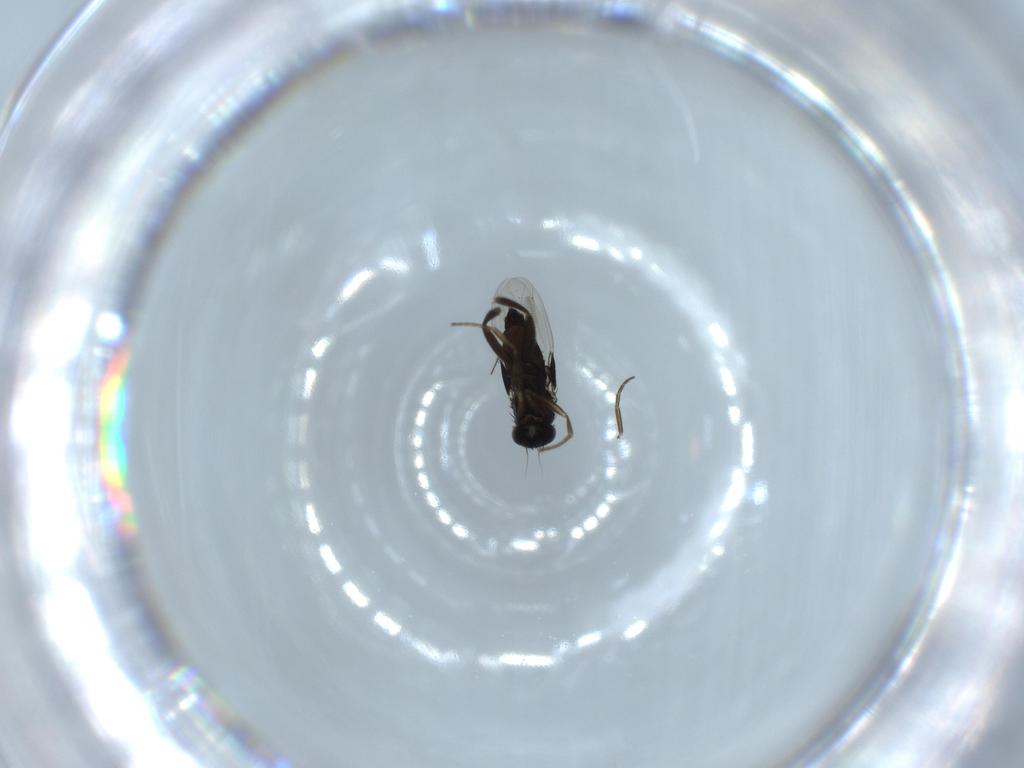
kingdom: Animalia
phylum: Arthropoda
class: Insecta
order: Diptera
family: Phoridae
